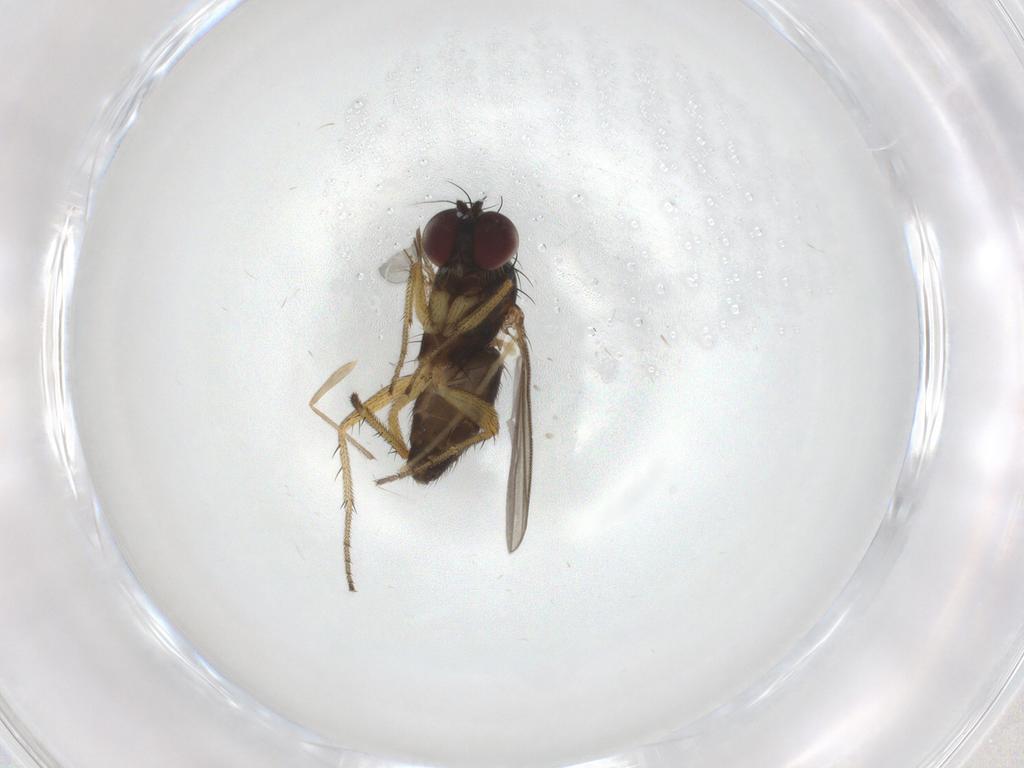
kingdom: Animalia
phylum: Arthropoda
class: Insecta
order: Diptera
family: Chironomidae
